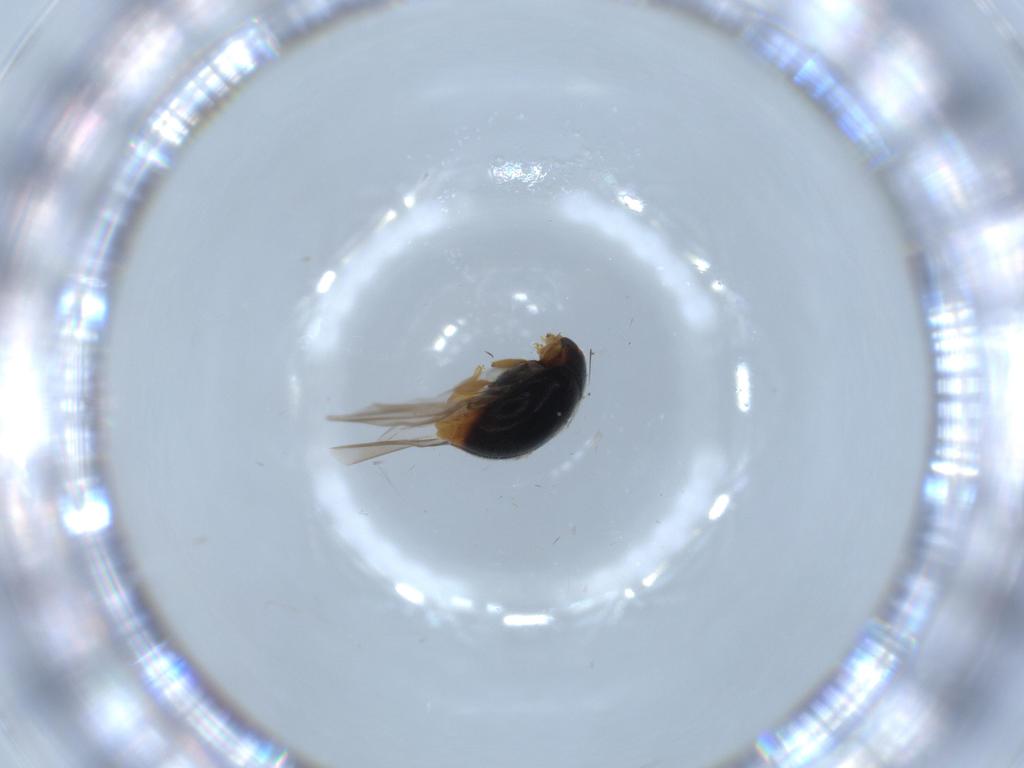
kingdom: Animalia
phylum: Arthropoda
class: Insecta
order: Coleoptera
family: Coccinellidae
